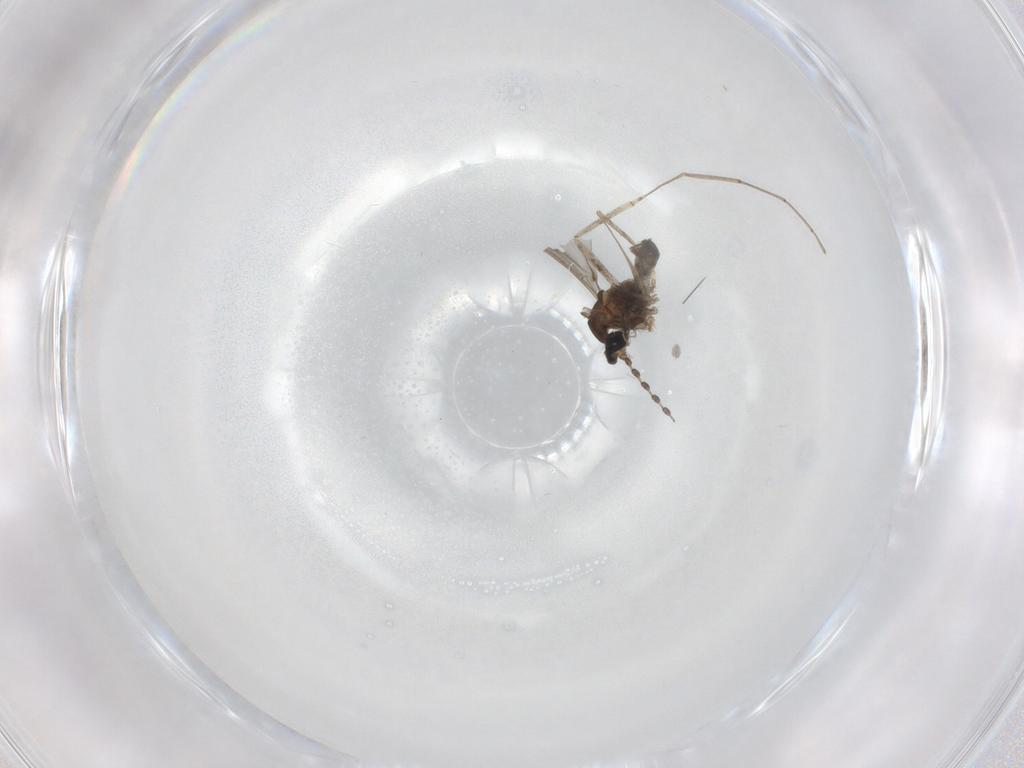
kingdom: Animalia
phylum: Arthropoda
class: Insecta
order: Diptera
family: Cecidomyiidae
